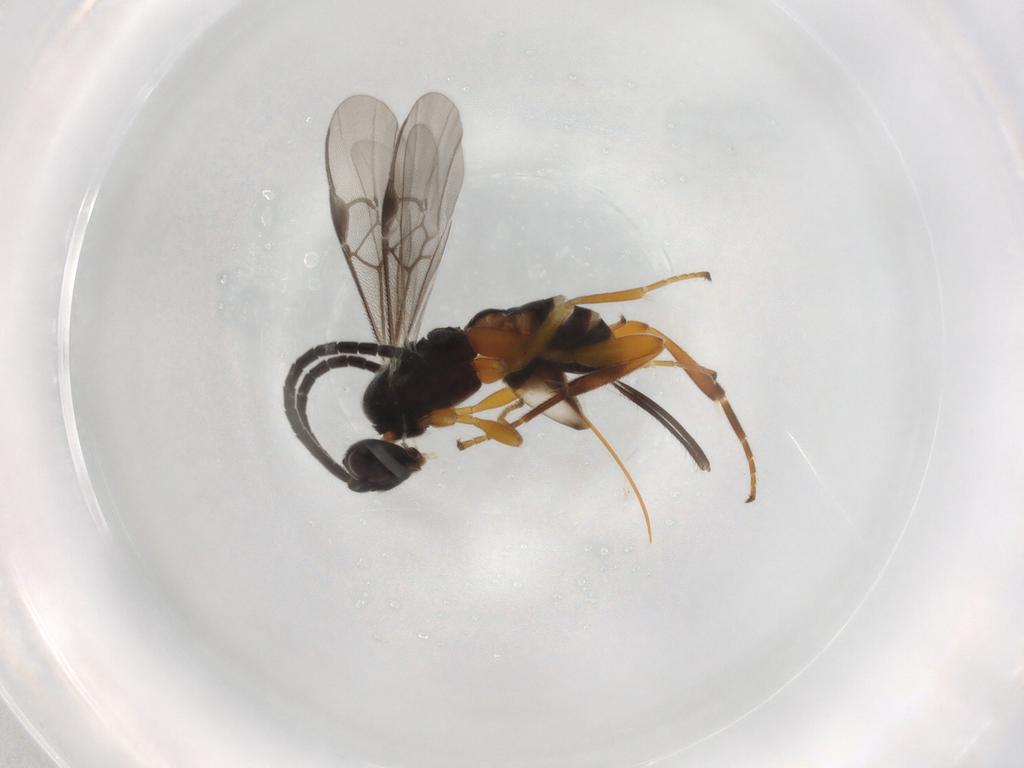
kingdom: Animalia
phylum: Arthropoda
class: Insecta
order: Hymenoptera
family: Braconidae
